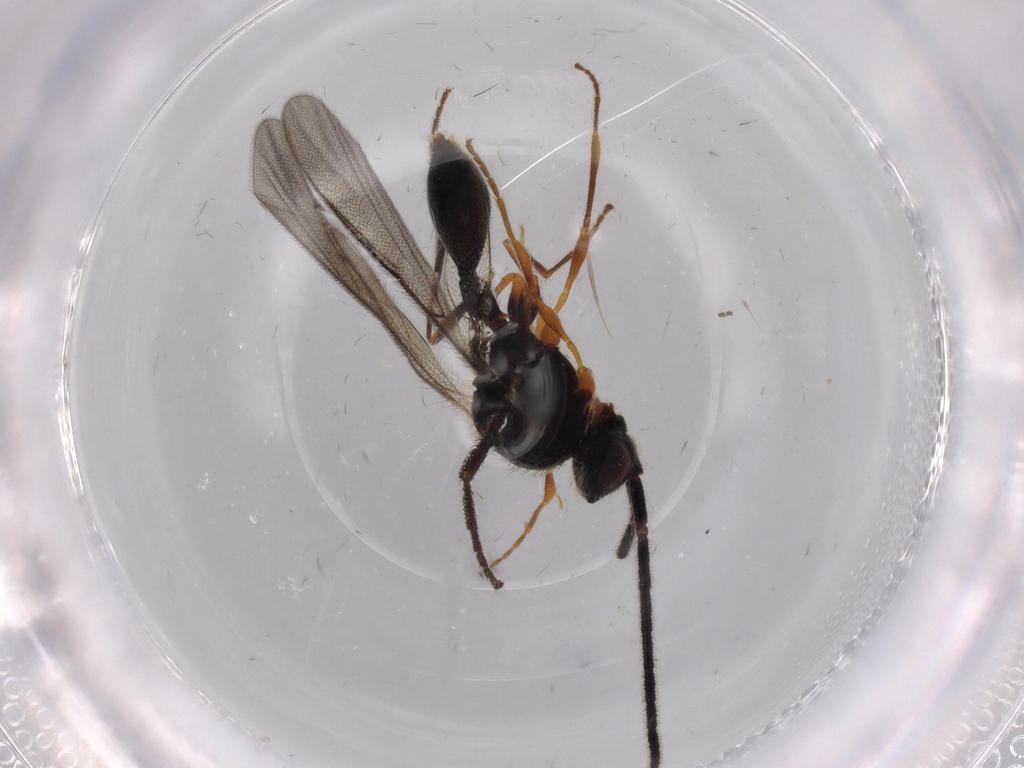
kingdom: Animalia
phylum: Arthropoda
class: Insecta
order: Hymenoptera
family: Diapriidae
